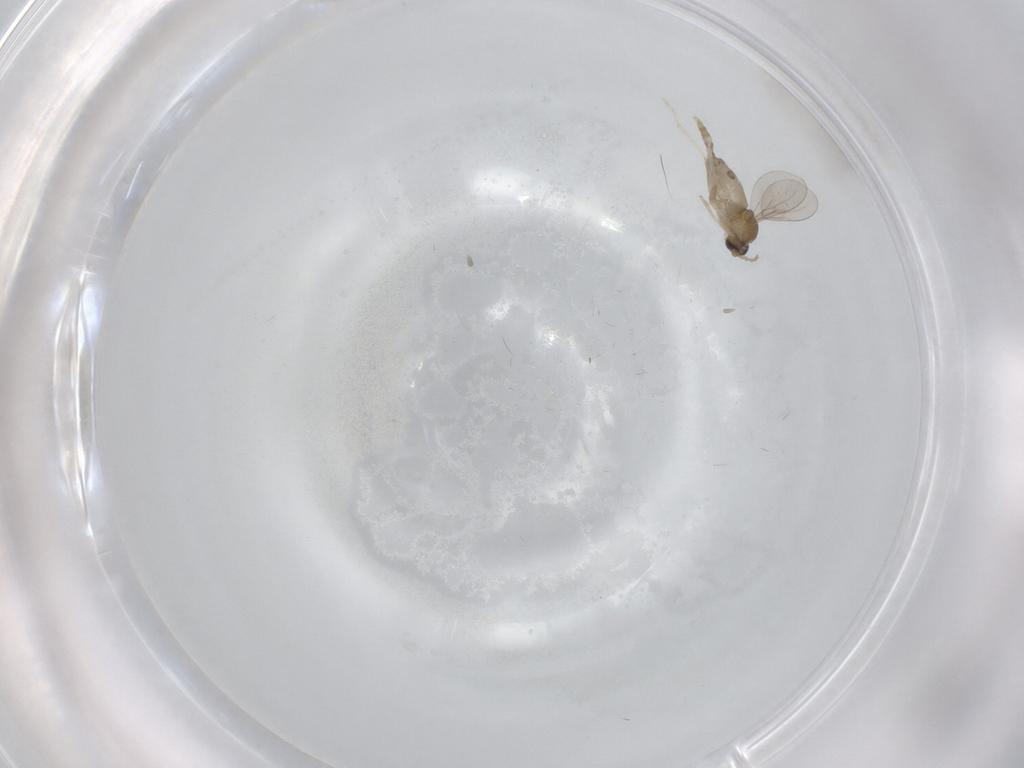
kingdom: Animalia
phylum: Arthropoda
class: Insecta
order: Diptera
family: Cecidomyiidae
